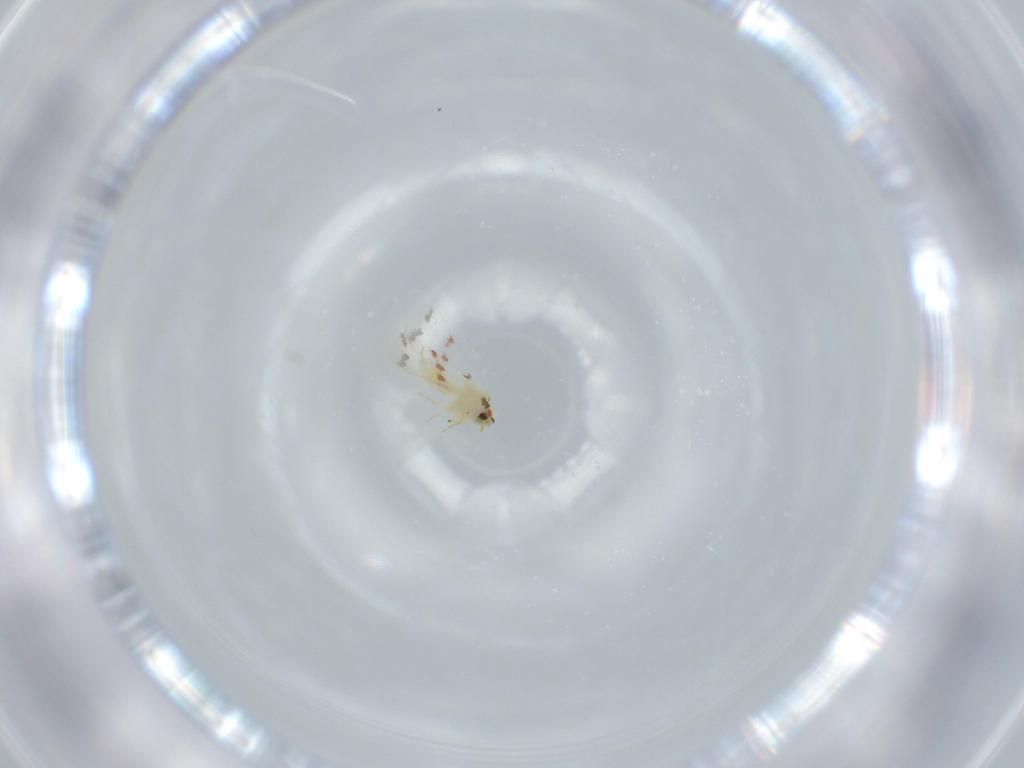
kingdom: Animalia
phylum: Arthropoda
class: Insecta
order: Hemiptera
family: Aleyrodidae
